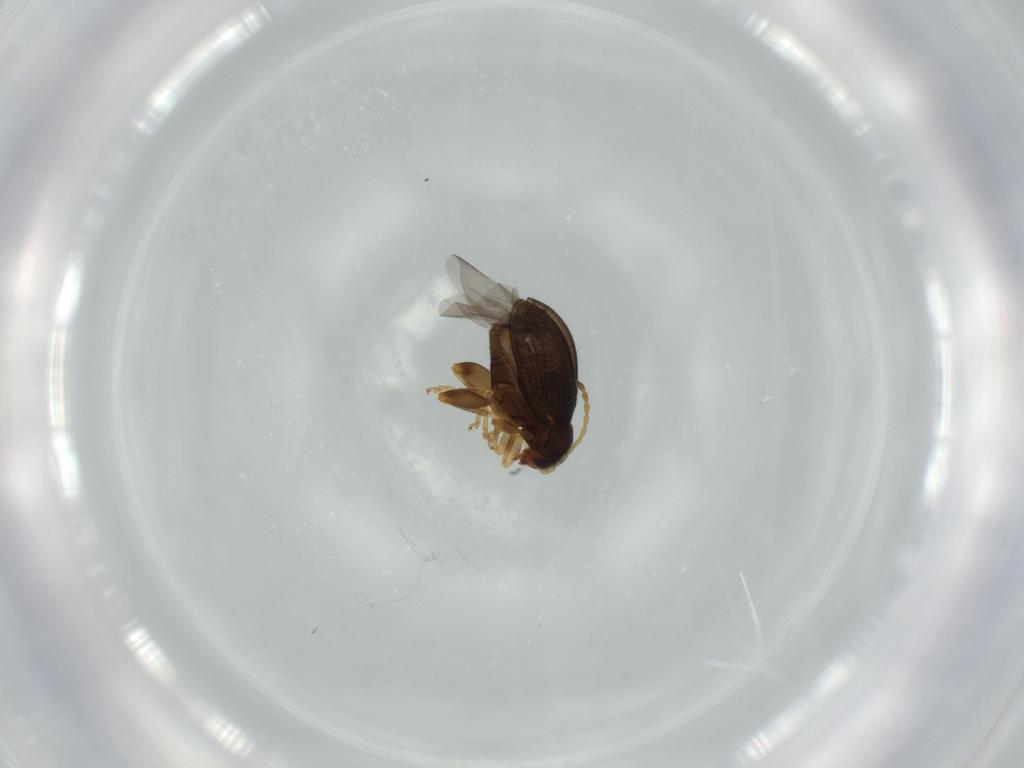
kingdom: Animalia
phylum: Arthropoda
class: Insecta
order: Coleoptera
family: Chrysomelidae
